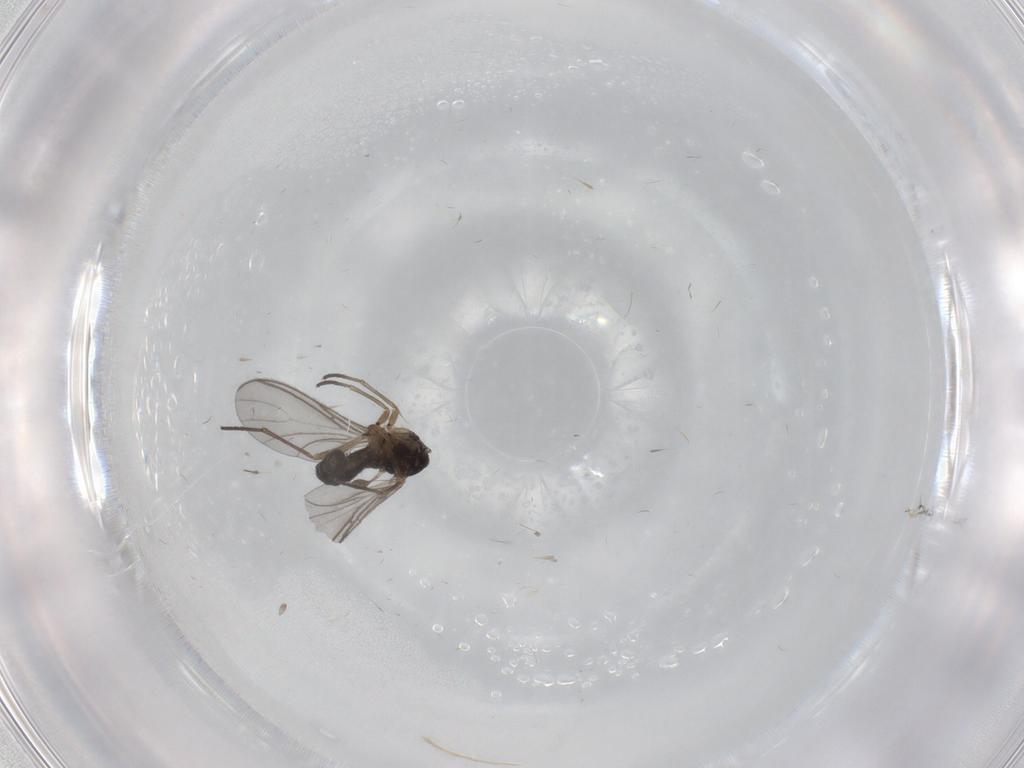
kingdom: Animalia
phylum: Arthropoda
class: Insecta
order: Diptera
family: Sciaridae
